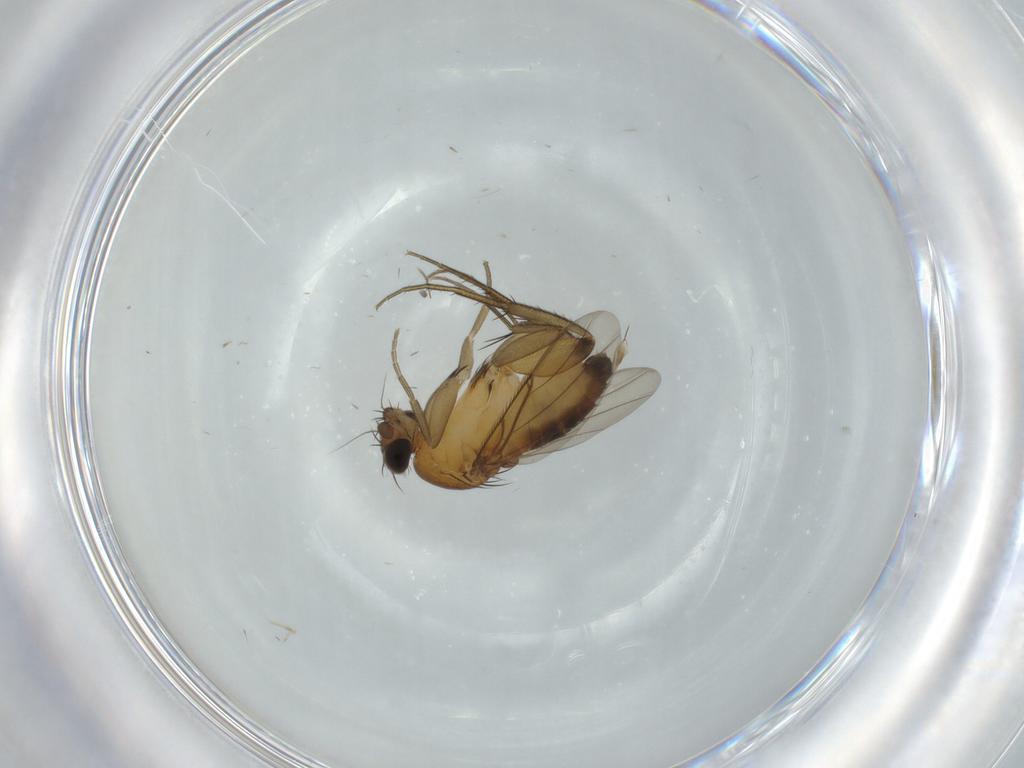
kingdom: Animalia
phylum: Arthropoda
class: Insecta
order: Diptera
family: Phoridae
